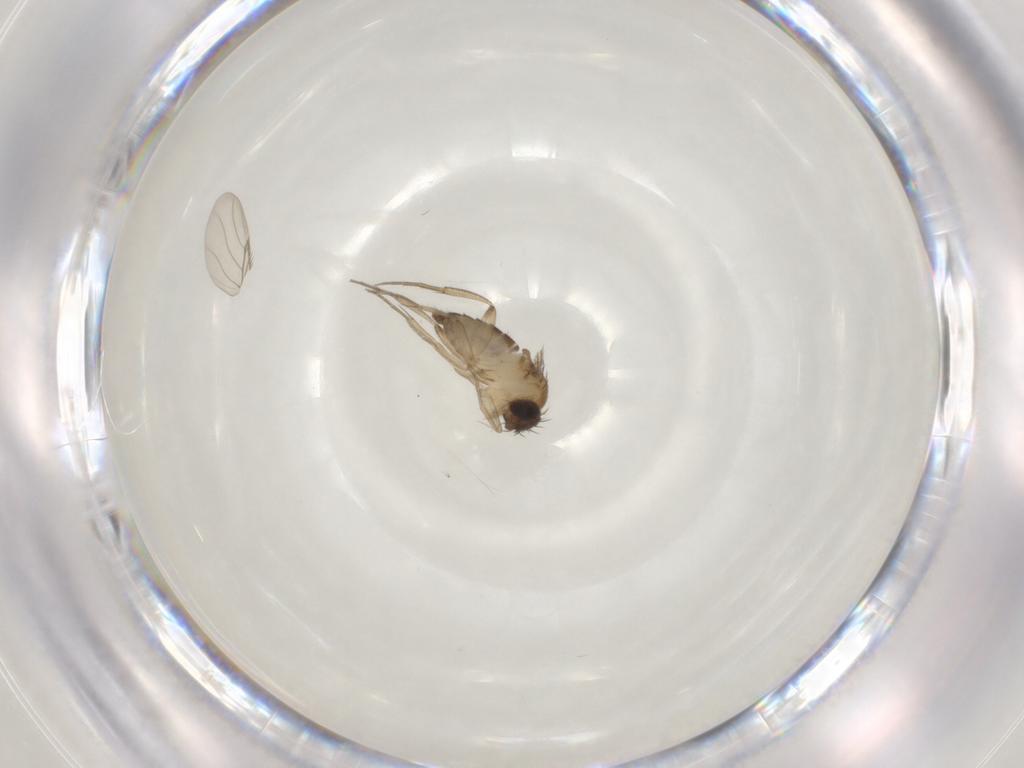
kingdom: Animalia
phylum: Arthropoda
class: Insecta
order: Diptera
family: Phoridae
